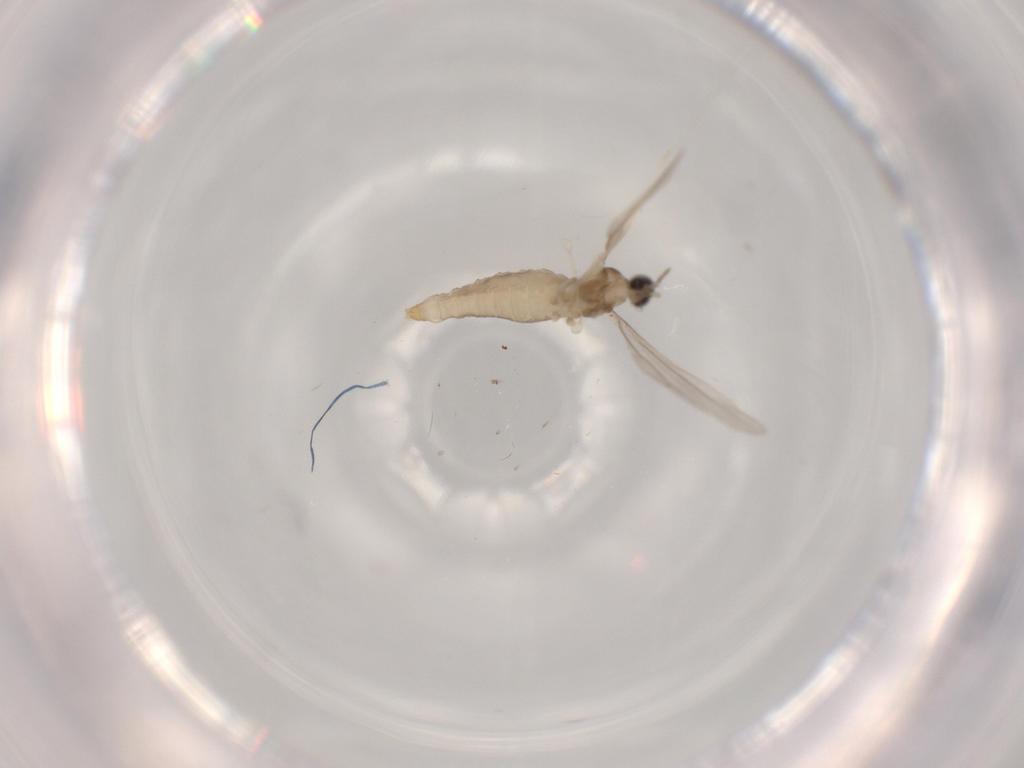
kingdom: Animalia
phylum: Arthropoda
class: Insecta
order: Diptera
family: Cecidomyiidae
